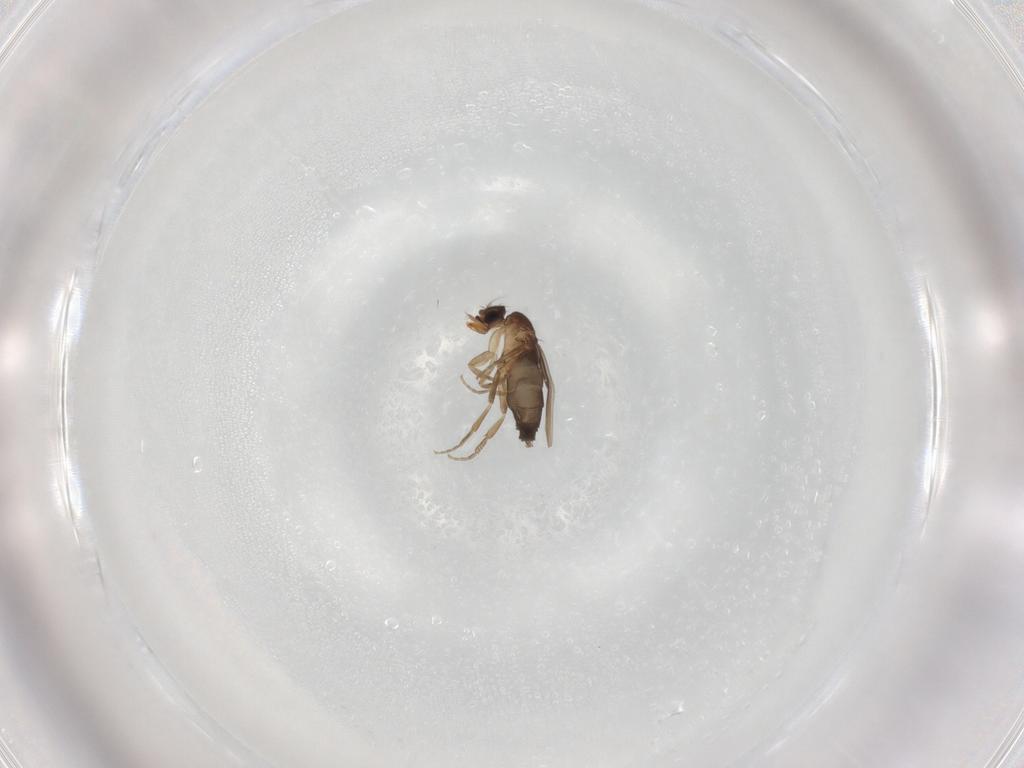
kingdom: Animalia
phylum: Arthropoda
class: Insecta
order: Diptera
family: Phoridae
